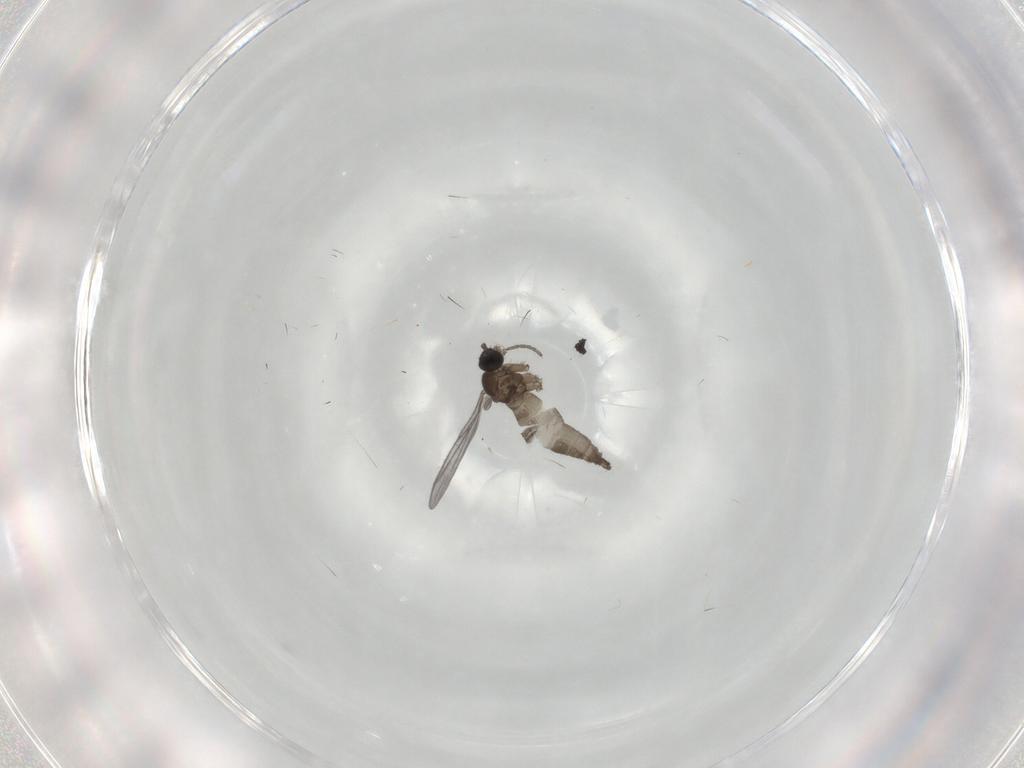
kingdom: Animalia
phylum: Arthropoda
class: Insecta
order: Diptera
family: Sciaridae
